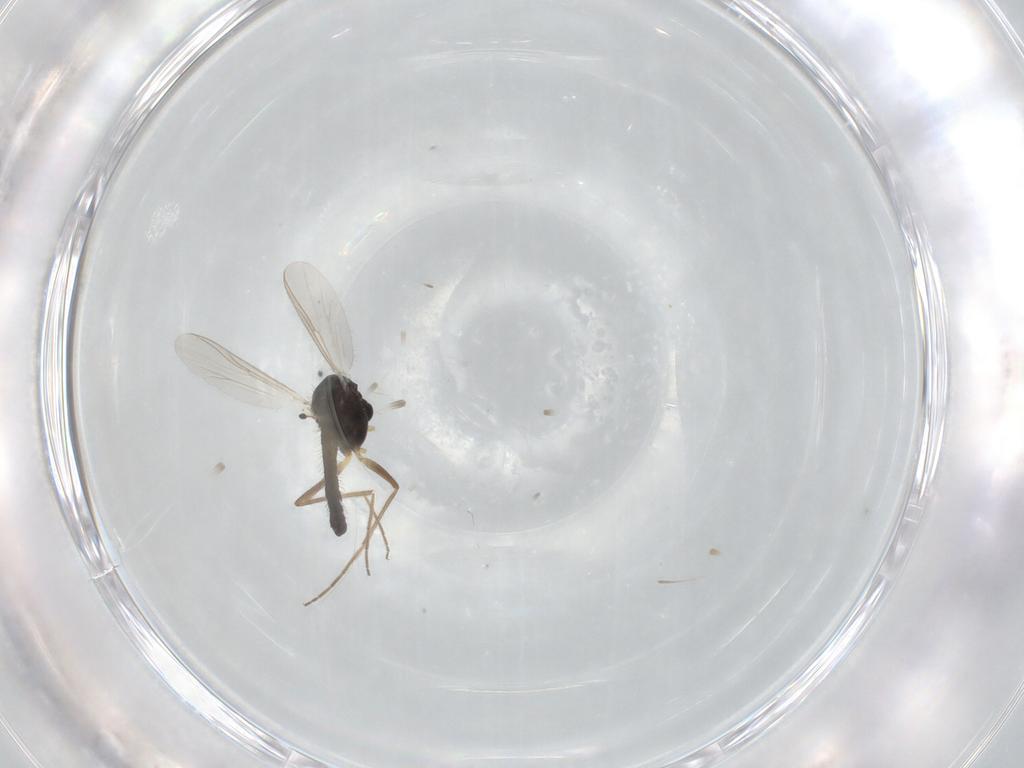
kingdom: Animalia
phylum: Arthropoda
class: Insecta
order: Diptera
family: Chironomidae
